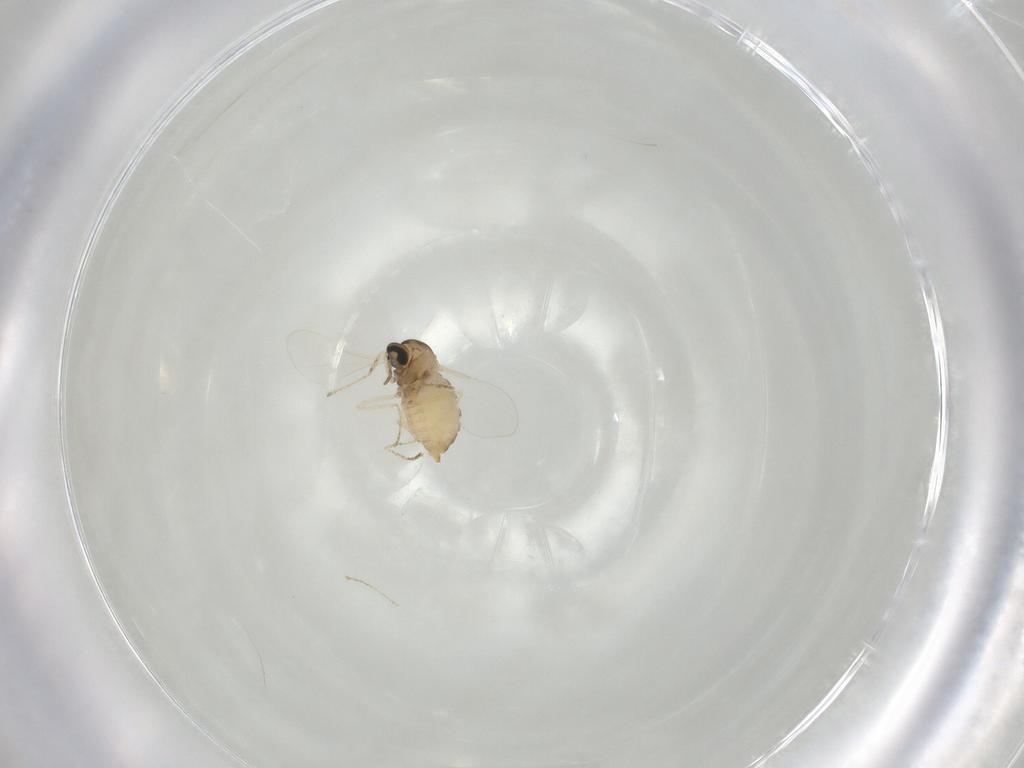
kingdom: Animalia
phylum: Arthropoda
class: Insecta
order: Diptera
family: Cecidomyiidae
